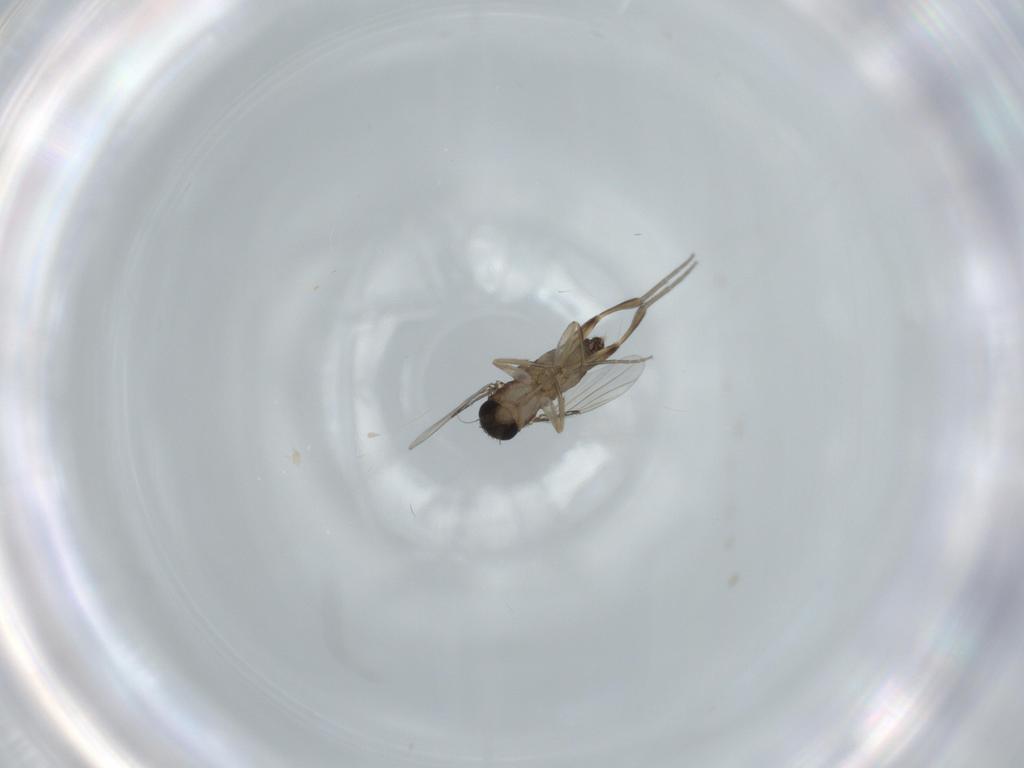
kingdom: Animalia
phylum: Arthropoda
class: Insecta
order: Diptera
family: Phoridae
